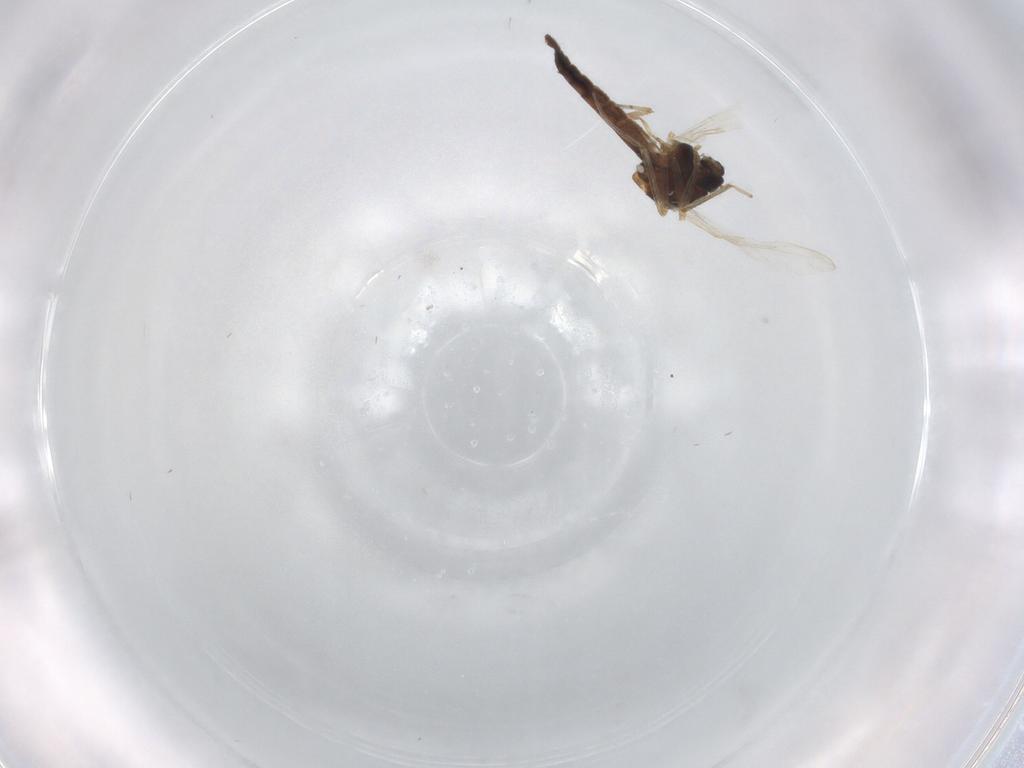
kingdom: Animalia
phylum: Arthropoda
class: Insecta
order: Diptera
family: Ceratopogonidae
